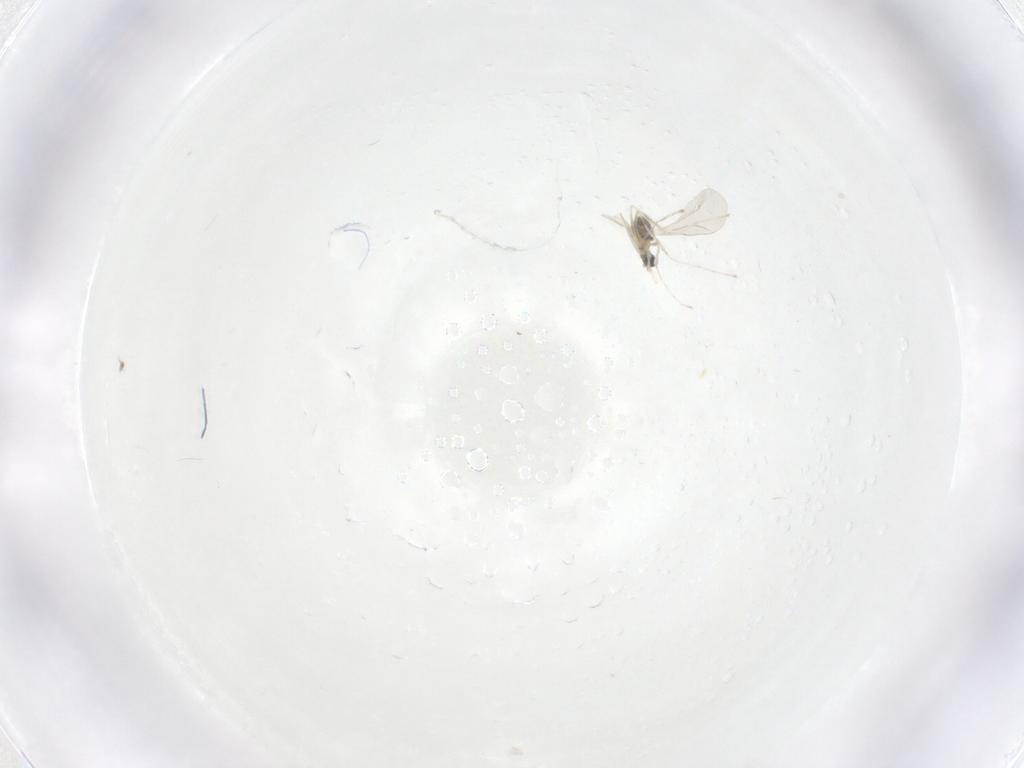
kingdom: Animalia
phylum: Arthropoda
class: Insecta
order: Diptera
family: Cecidomyiidae
